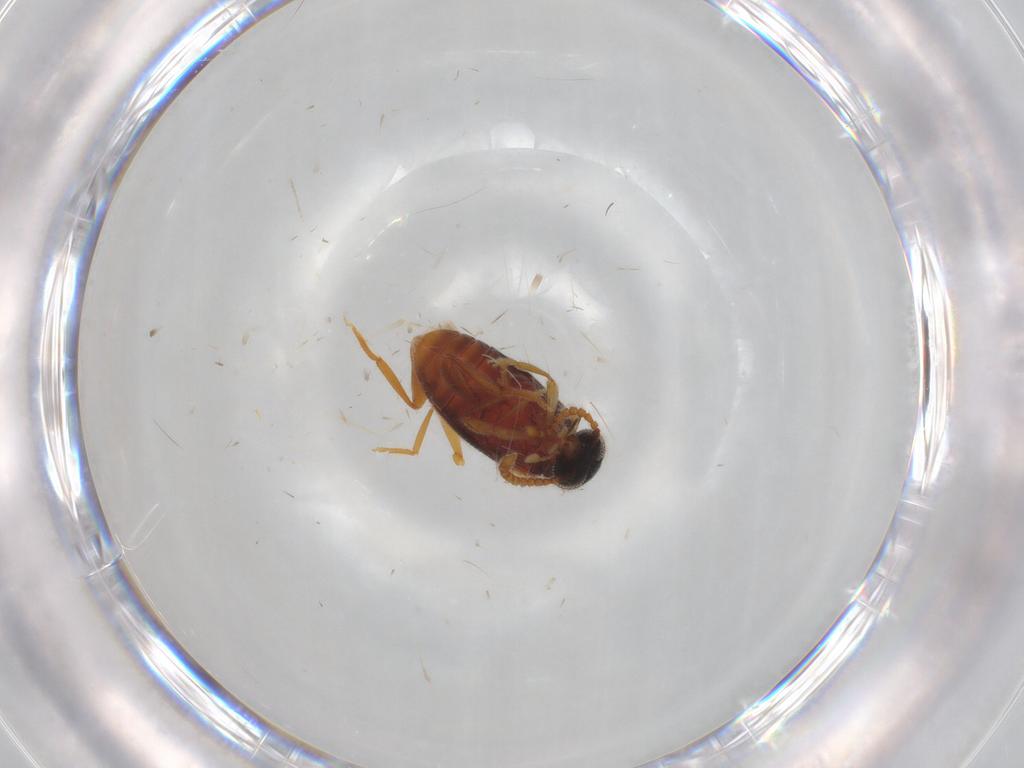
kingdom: Animalia
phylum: Arthropoda
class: Insecta
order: Coleoptera
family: Aderidae
